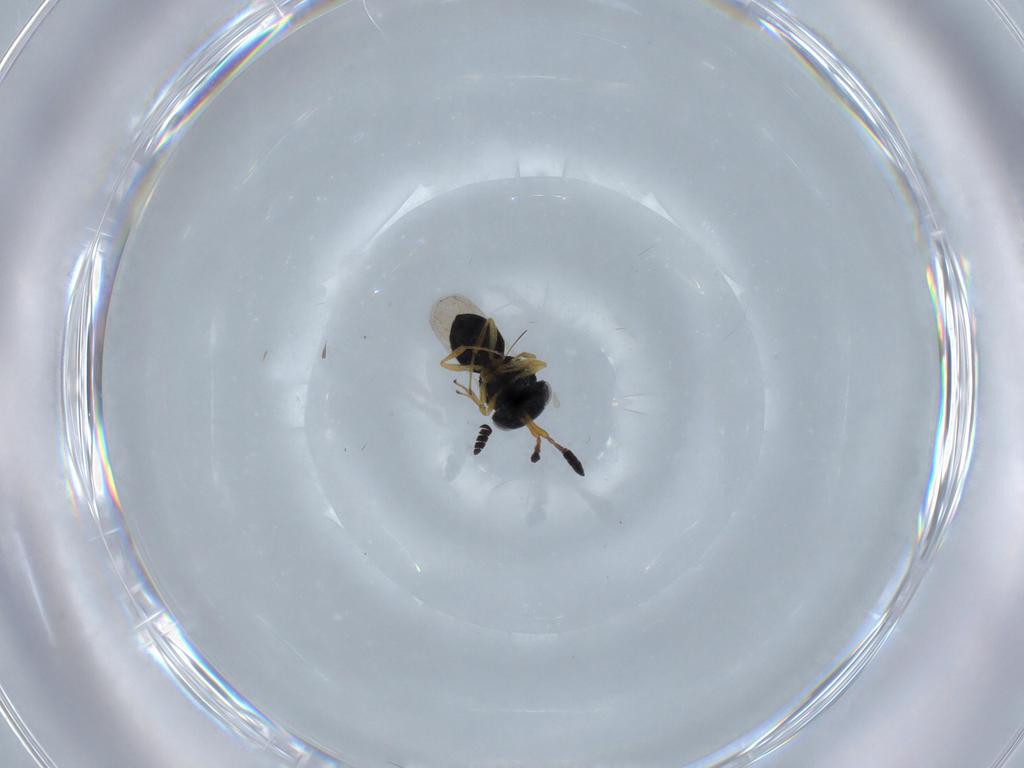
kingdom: Animalia
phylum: Arthropoda
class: Insecta
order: Hymenoptera
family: Scelionidae
